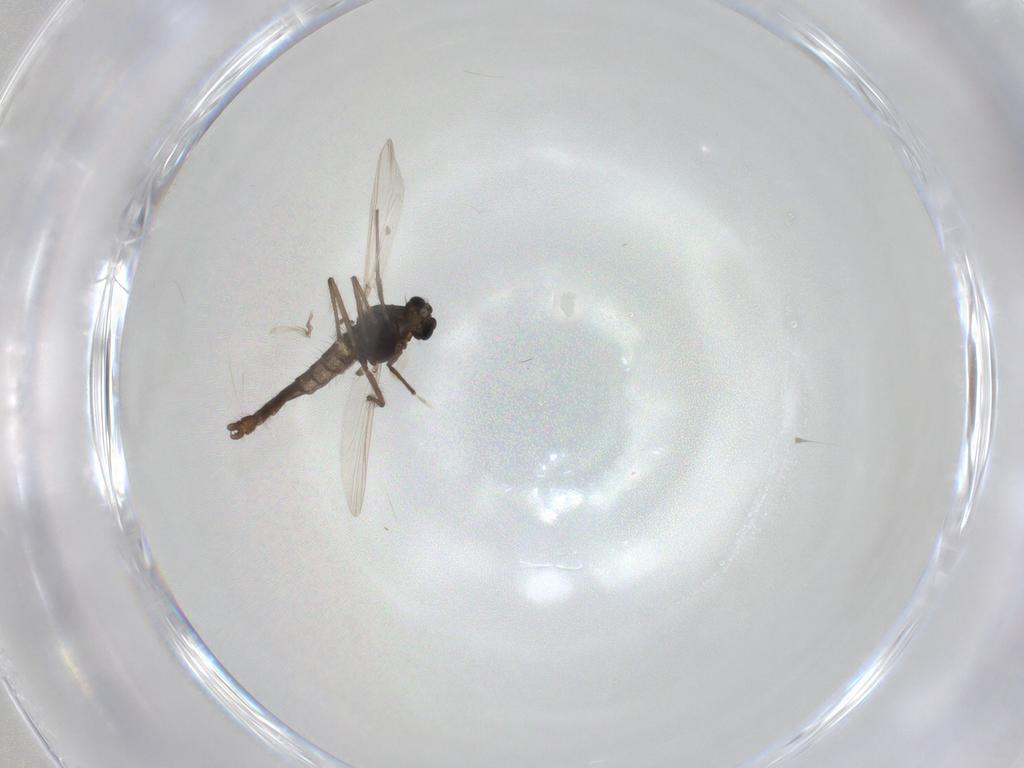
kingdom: Animalia
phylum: Arthropoda
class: Insecta
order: Diptera
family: Chironomidae
